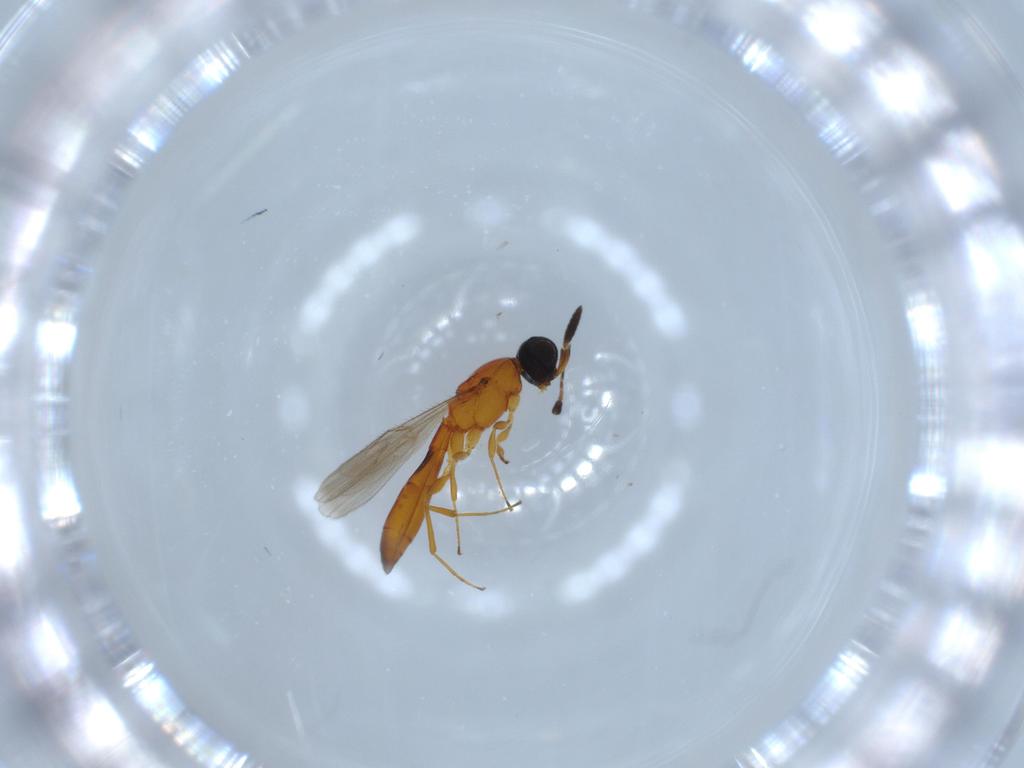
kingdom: Animalia
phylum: Arthropoda
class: Insecta
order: Hymenoptera
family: Scelionidae
